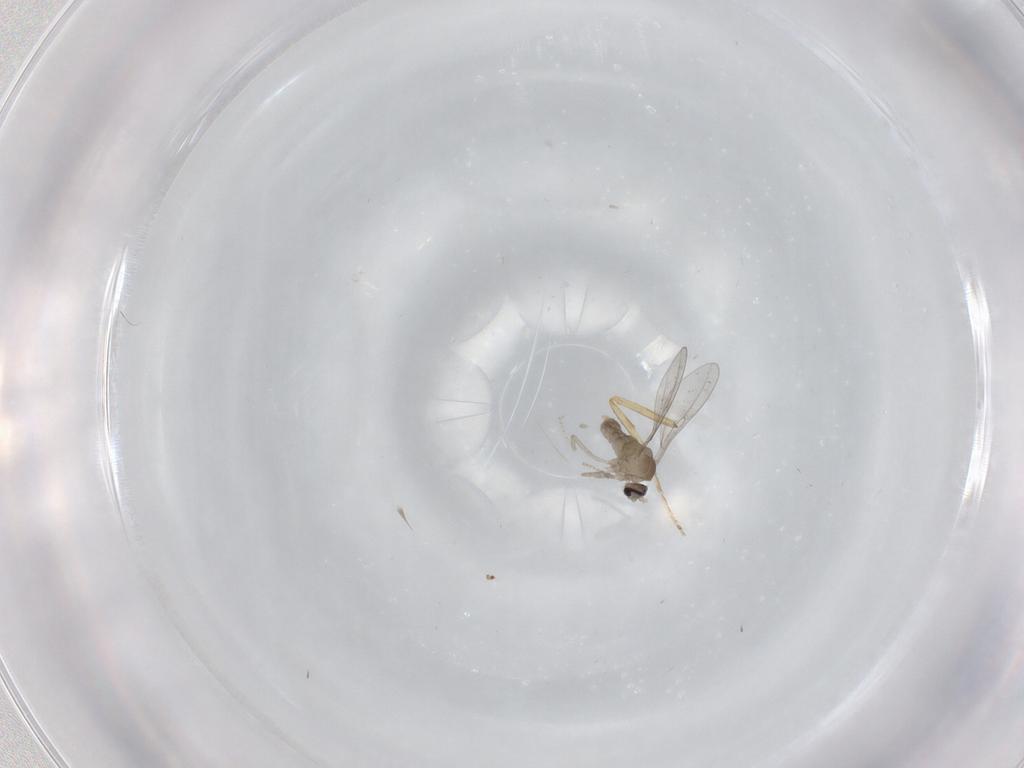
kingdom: Animalia
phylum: Arthropoda
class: Insecta
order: Diptera
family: Cecidomyiidae
